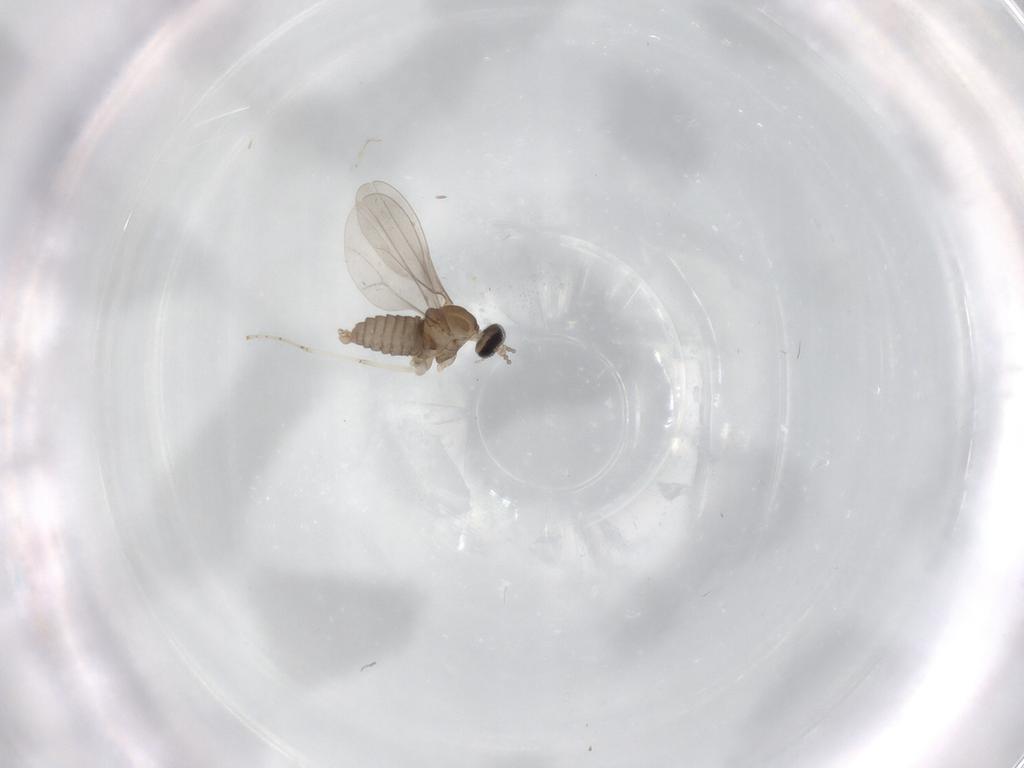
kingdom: Animalia
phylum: Arthropoda
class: Insecta
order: Diptera
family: Cecidomyiidae
